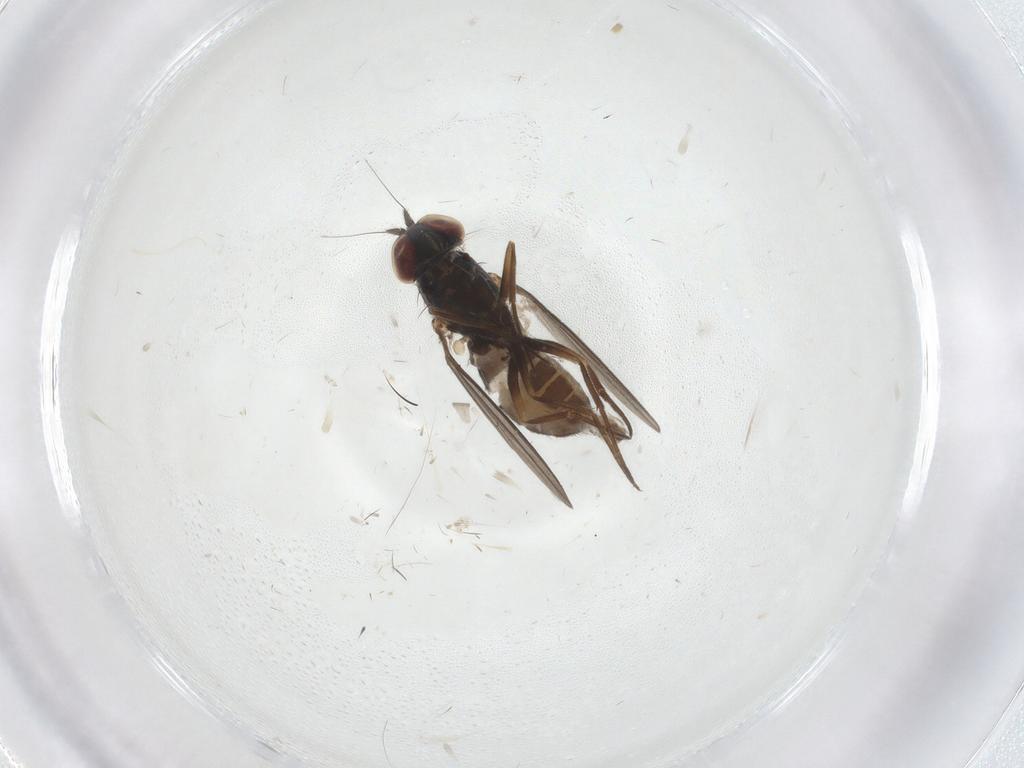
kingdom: Animalia
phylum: Arthropoda
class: Insecta
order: Diptera
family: Dolichopodidae
